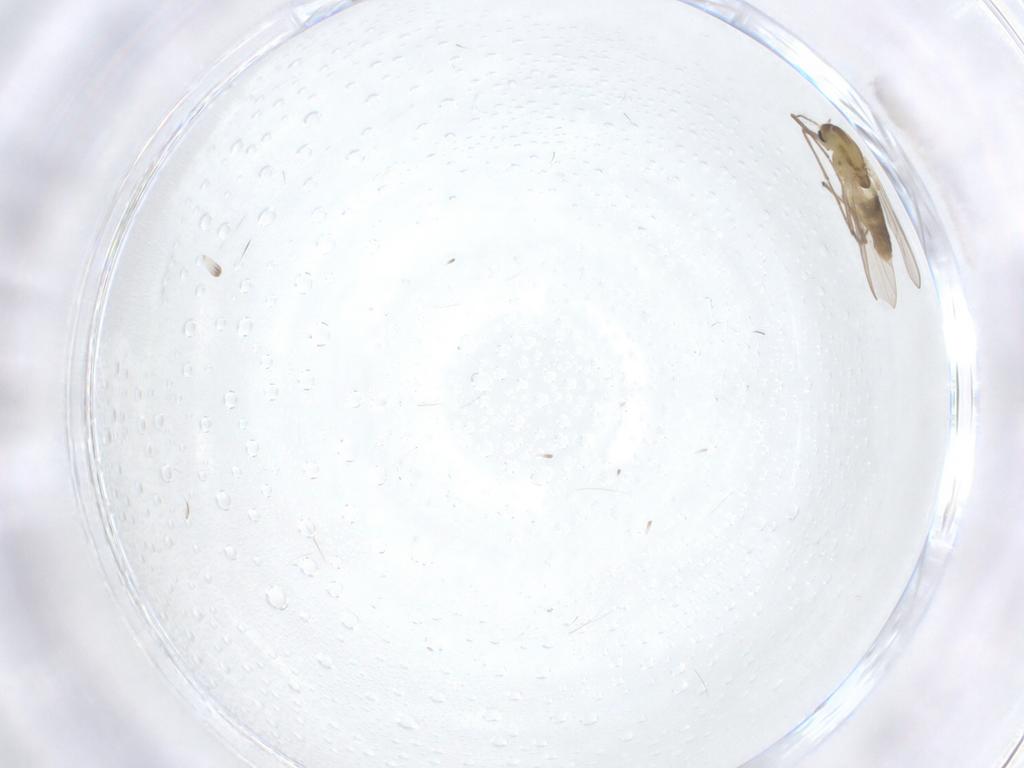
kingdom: Animalia
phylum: Arthropoda
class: Insecta
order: Diptera
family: Chironomidae
